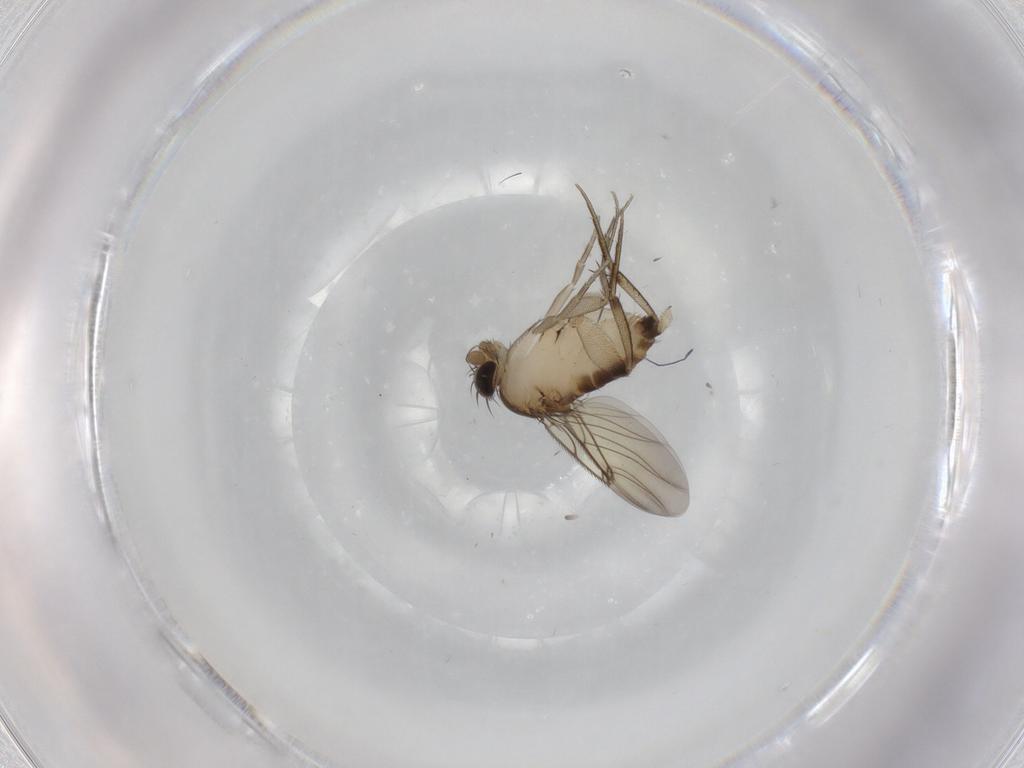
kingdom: Animalia
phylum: Arthropoda
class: Insecta
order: Diptera
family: Phoridae
